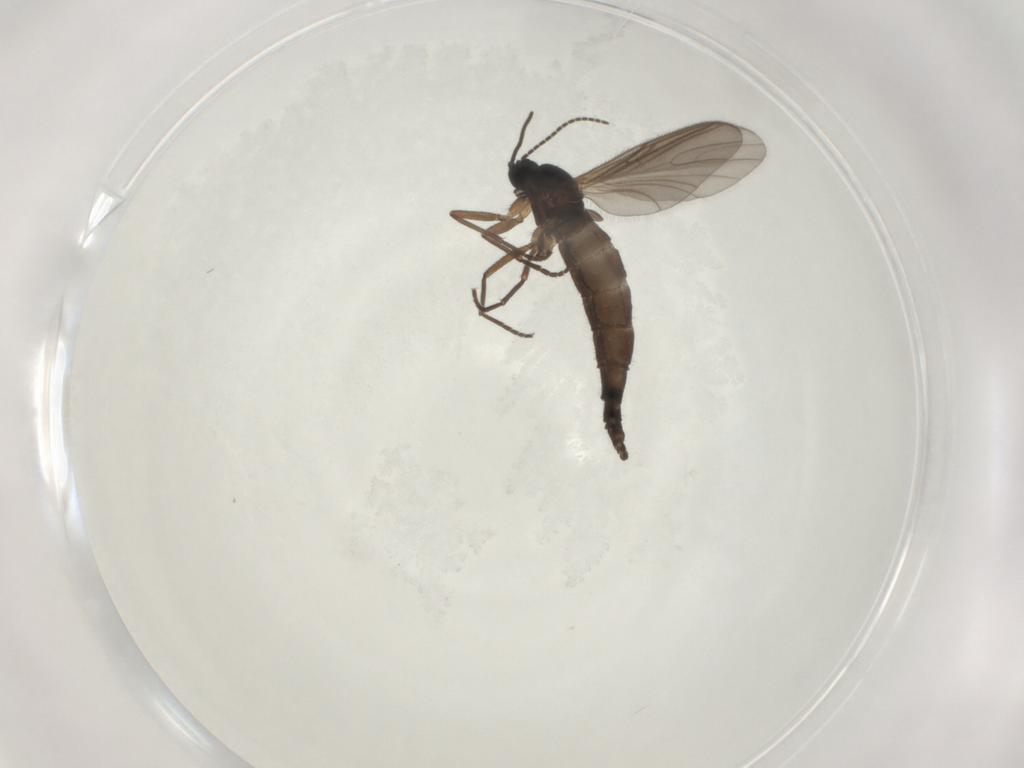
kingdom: Animalia
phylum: Arthropoda
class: Insecta
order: Diptera
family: Sciaridae
